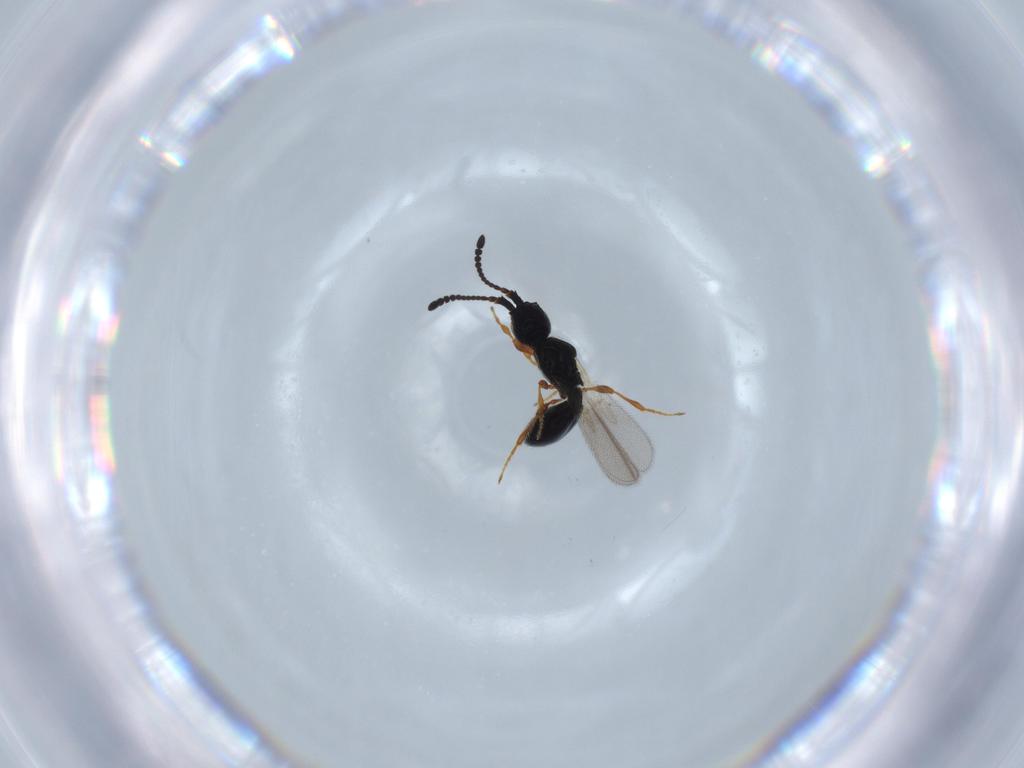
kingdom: Animalia
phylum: Arthropoda
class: Insecta
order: Hymenoptera
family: Diapriidae
